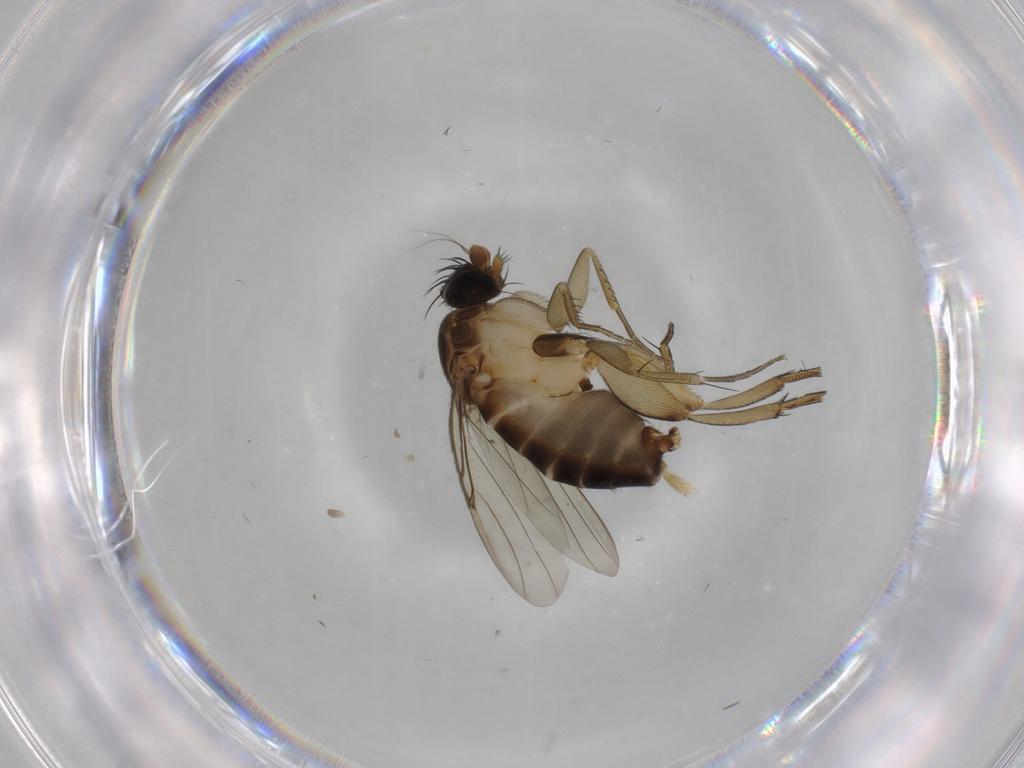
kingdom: Animalia
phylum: Arthropoda
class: Insecta
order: Diptera
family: Phoridae
